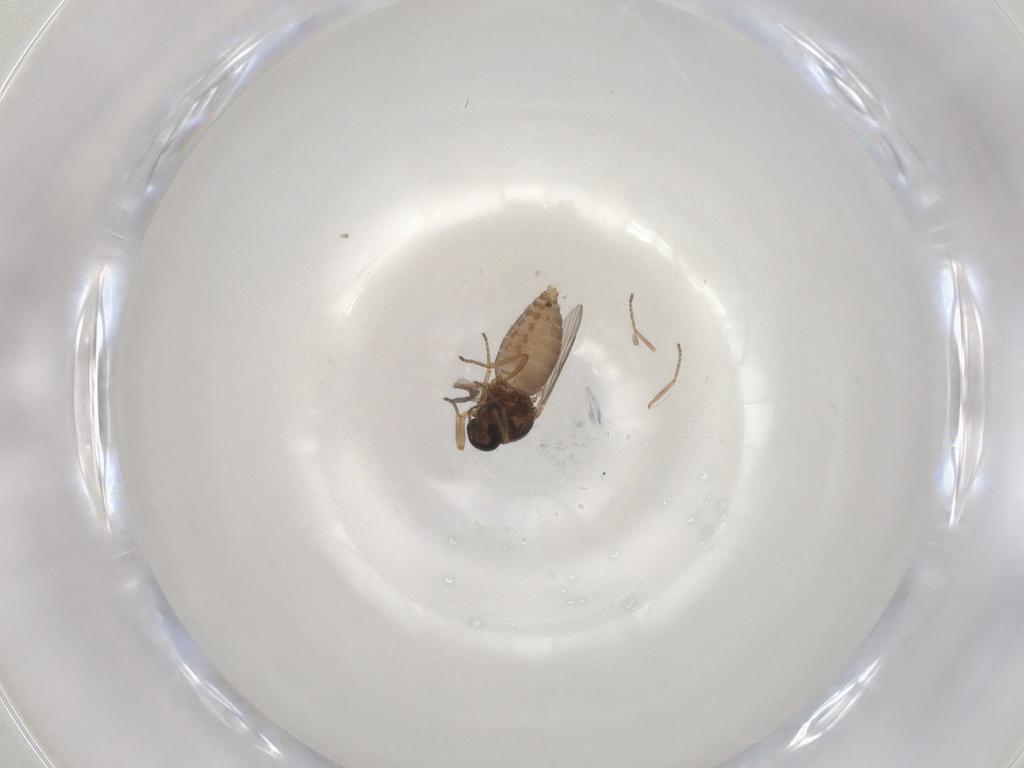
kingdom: Animalia
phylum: Arthropoda
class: Insecta
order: Diptera
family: Ceratopogonidae
